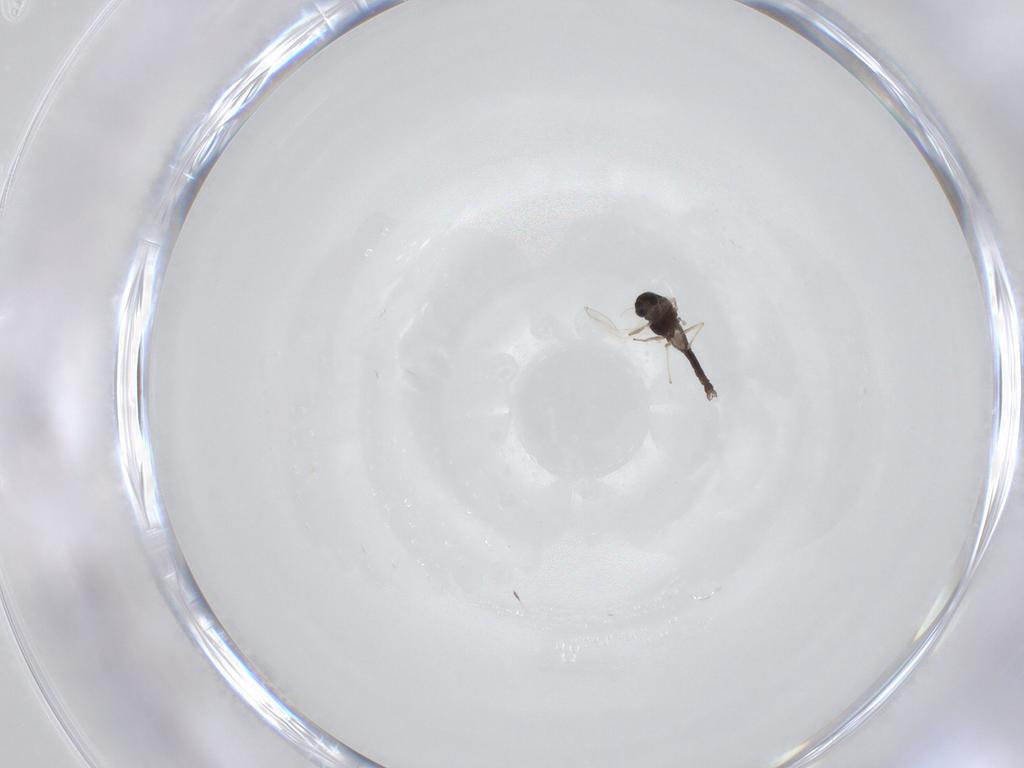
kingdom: Animalia
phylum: Arthropoda
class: Insecta
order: Diptera
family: Chironomidae
